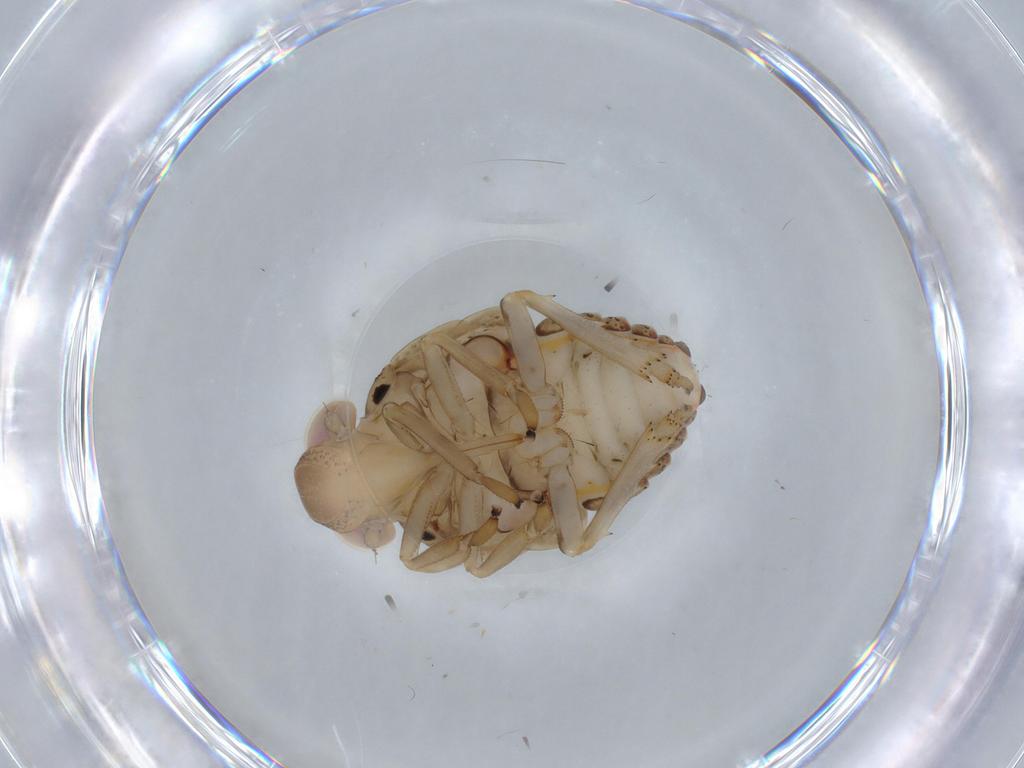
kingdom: Animalia
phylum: Arthropoda
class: Insecta
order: Hemiptera
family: Issidae
